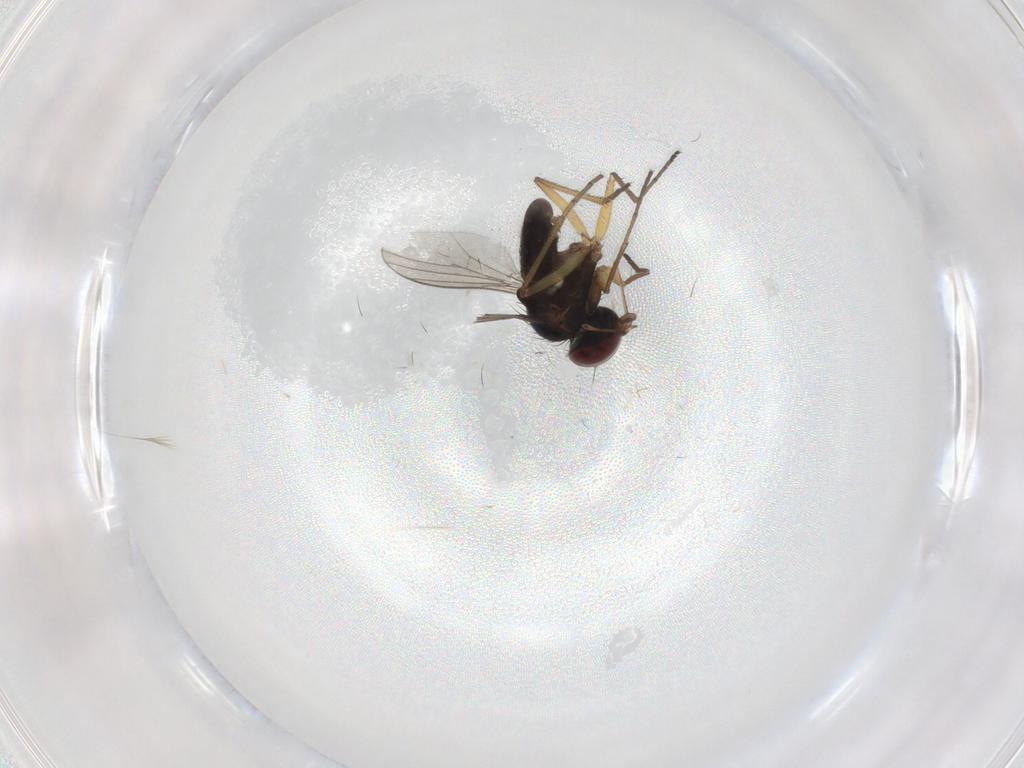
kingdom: Animalia
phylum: Arthropoda
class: Insecta
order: Diptera
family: Dolichopodidae
